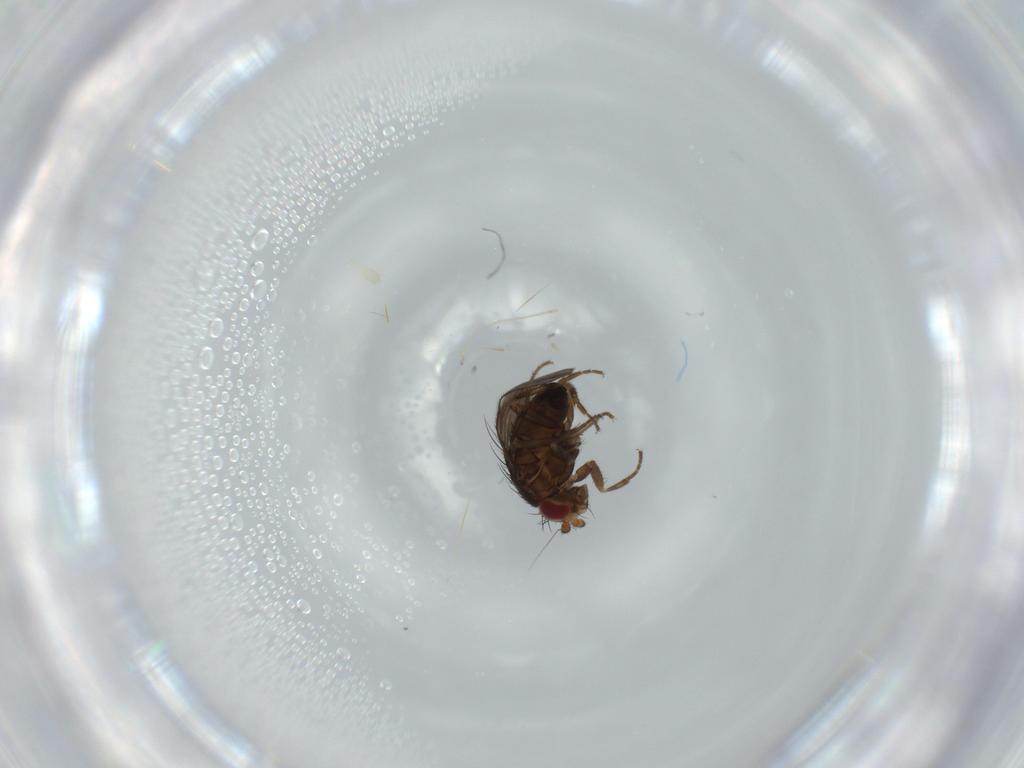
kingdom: Animalia
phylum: Arthropoda
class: Insecta
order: Diptera
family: Sphaeroceridae
